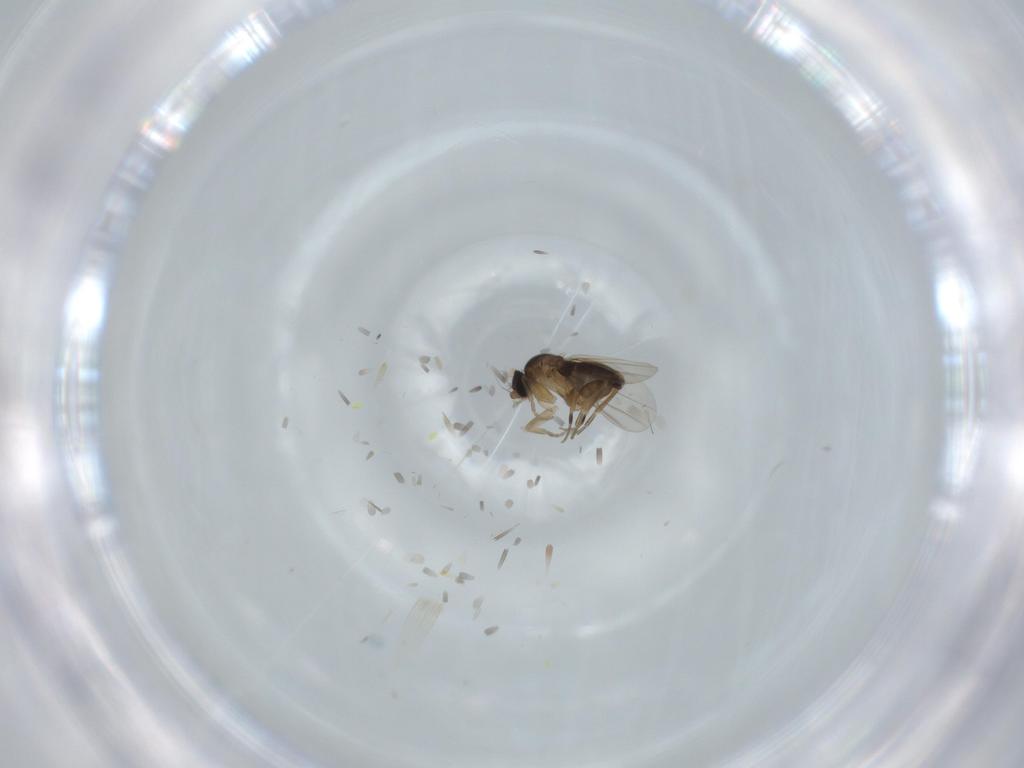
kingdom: Animalia
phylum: Arthropoda
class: Insecta
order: Diptera
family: Phoridae
